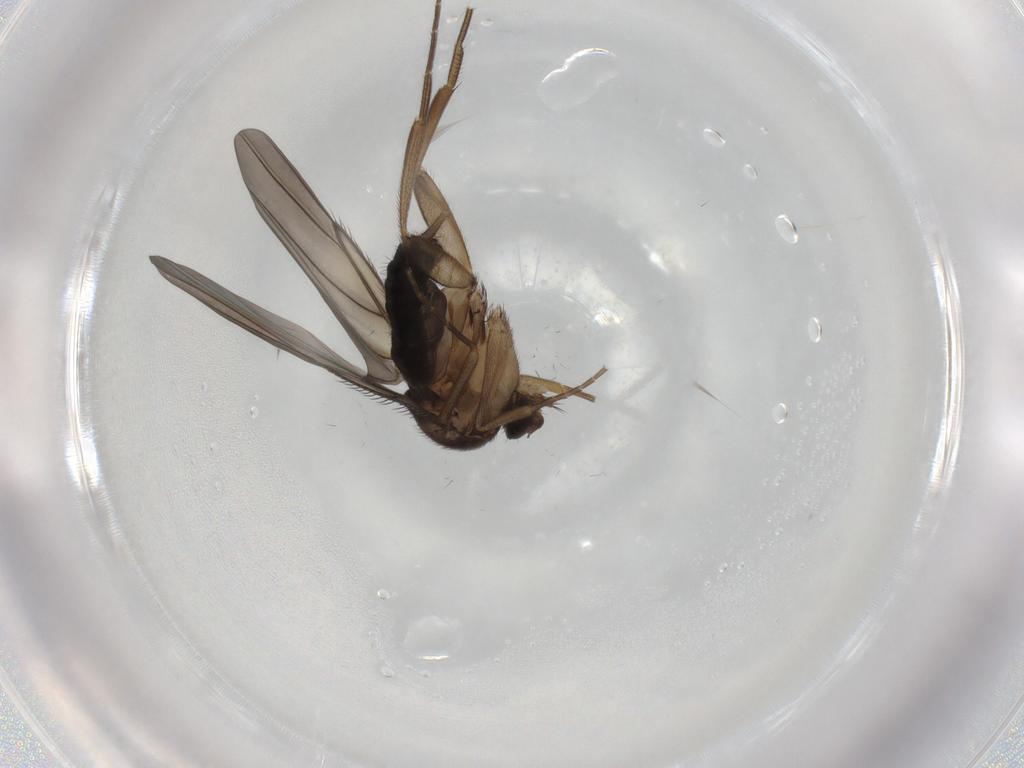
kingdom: Animalia
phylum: Arthropoda
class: Insecta
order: Diptera
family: Phoridae
